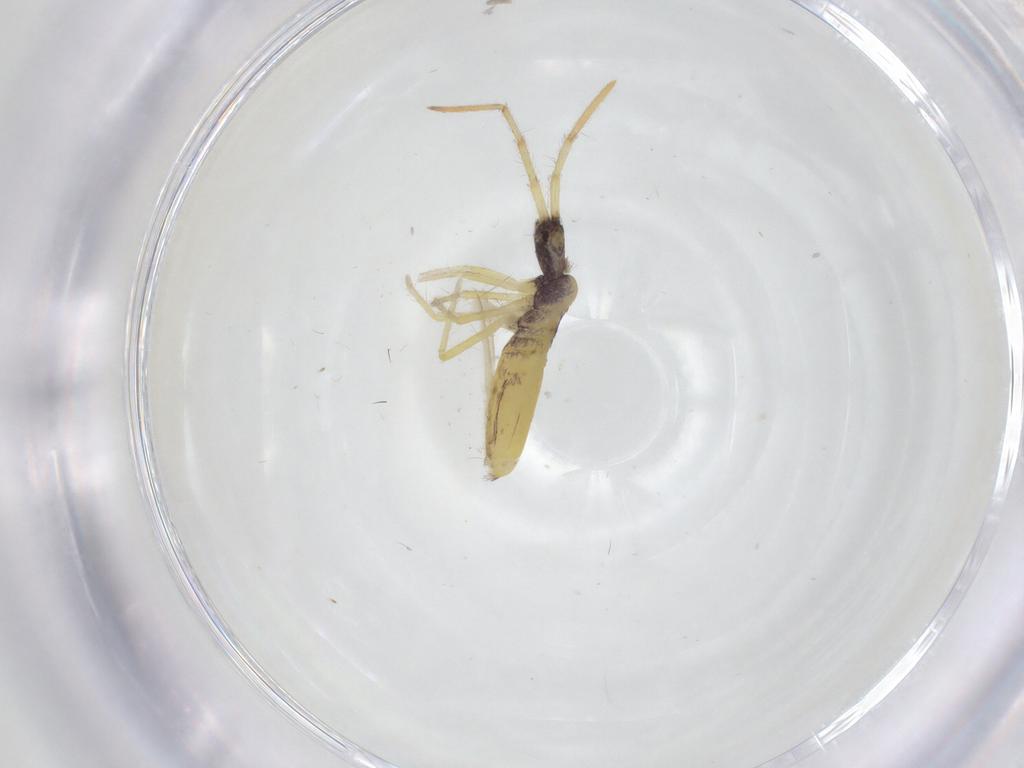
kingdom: Animalia
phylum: Arthropoda
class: Collembola
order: Entomobryomorpha
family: Entomobryidae
